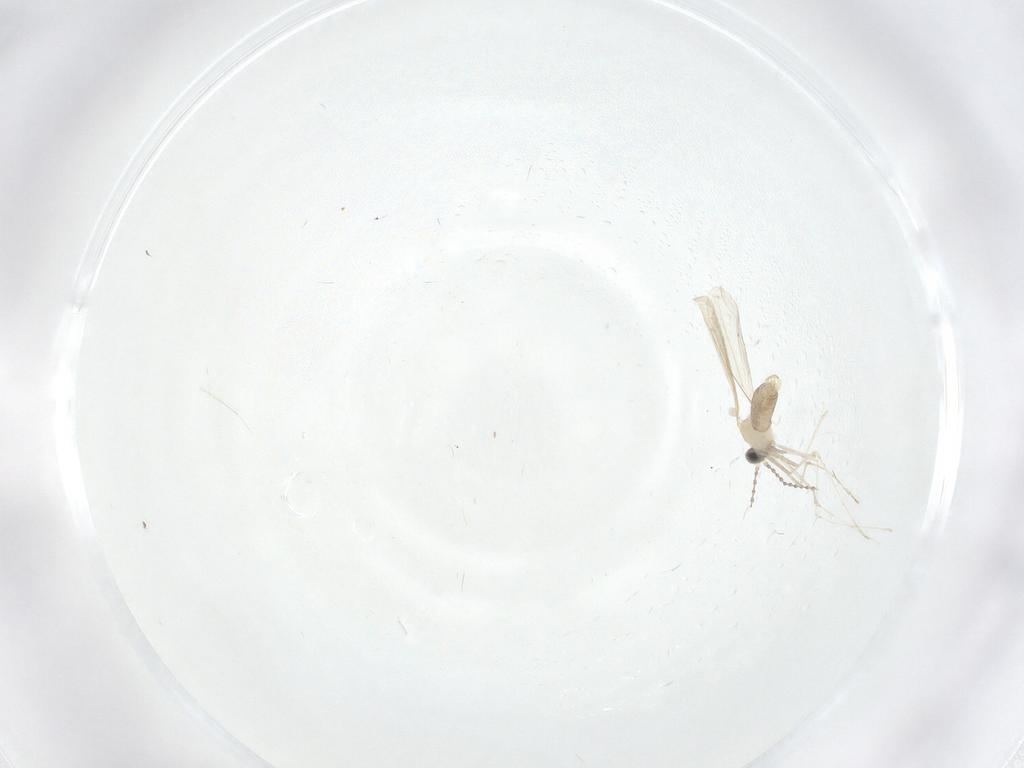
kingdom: Animalia
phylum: Arthropoda
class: Insecta
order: Diptera
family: Cecidomyiidae
